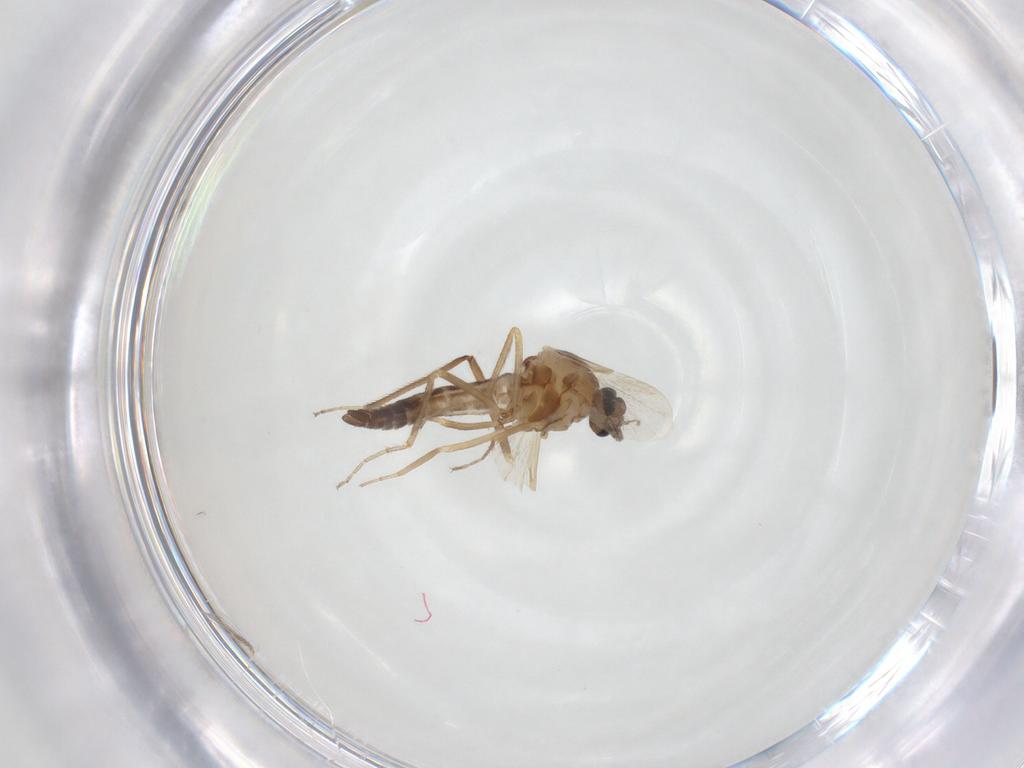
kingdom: Animalia
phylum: Arthropoda
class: Insecta
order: Diptera
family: Ceratopogonidae
